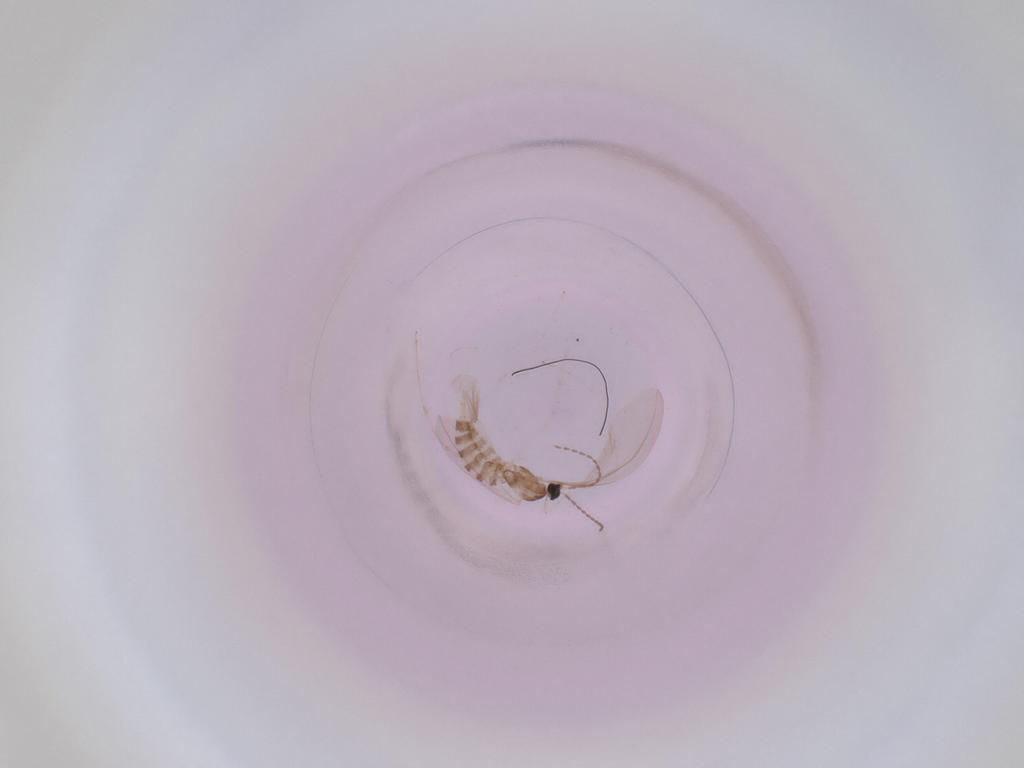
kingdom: Animalia
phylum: Arthropoda
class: Insecta
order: Diptera
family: Cecidomyiidae
